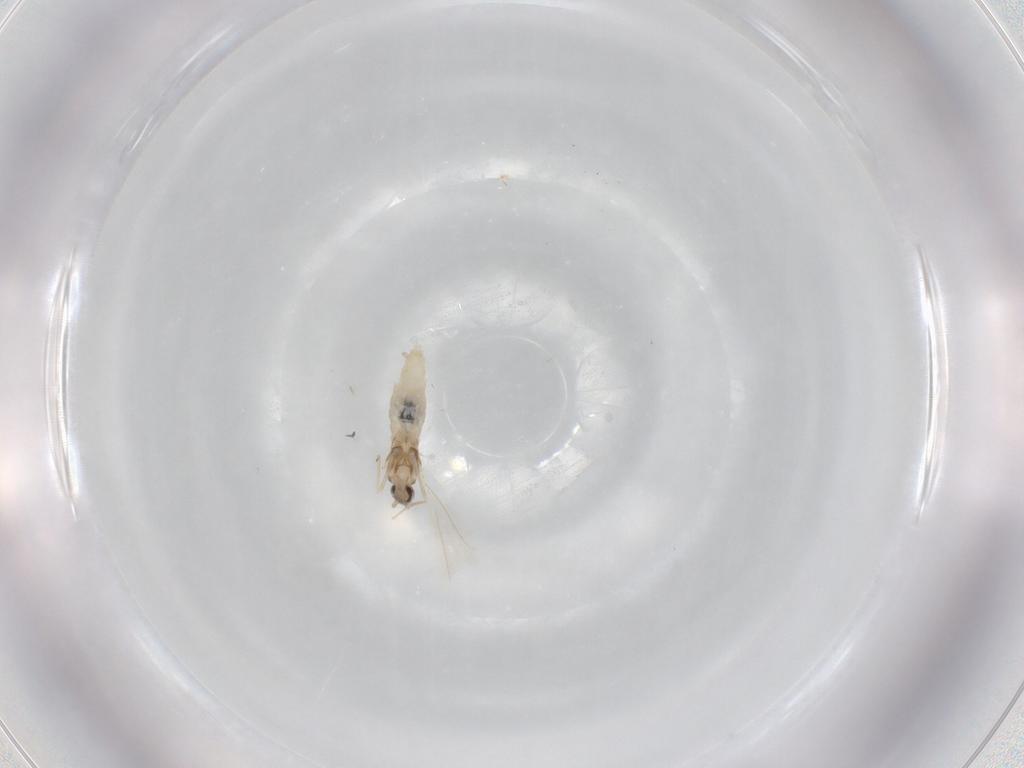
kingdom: Animalia
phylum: Arthropoda
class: Insecta
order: Diptera
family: Cecidomyiidae
